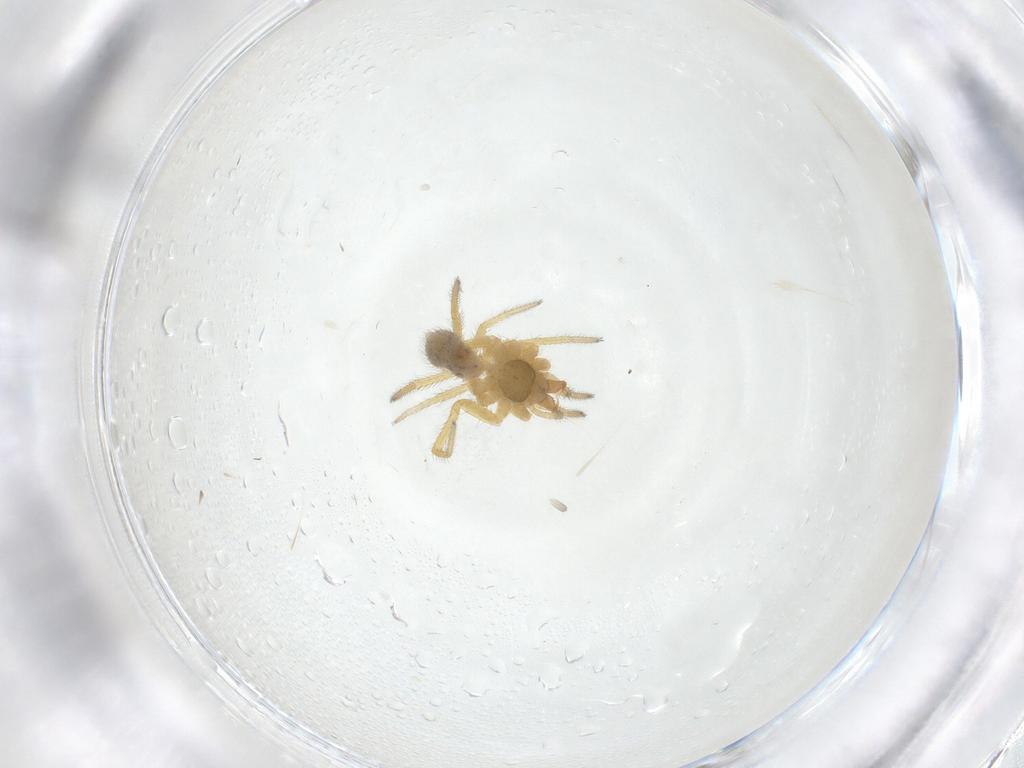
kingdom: Animalia
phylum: Arthropoda
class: Arachnida
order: Araneae
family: Linyphiidae
